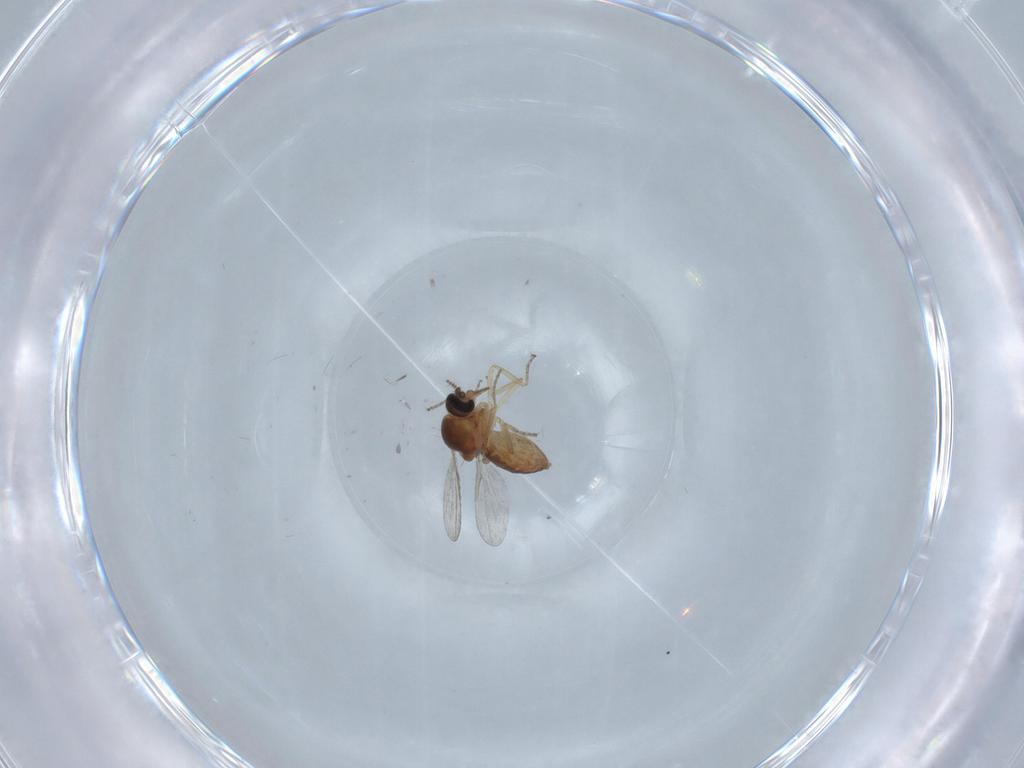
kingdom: Animalia
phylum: Arthropoda
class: Insecta
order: Diptera
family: Ceratopogonidae
